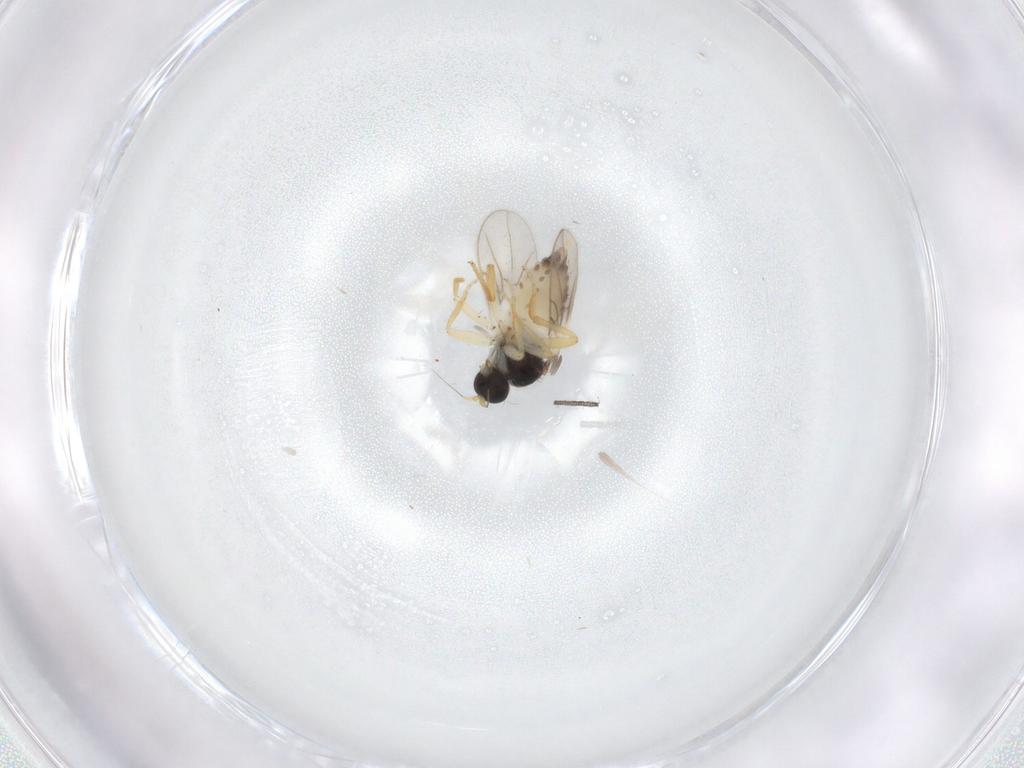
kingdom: Animalia
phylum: Arthropoda
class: Insecta
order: Diptera
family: Hybotidae
